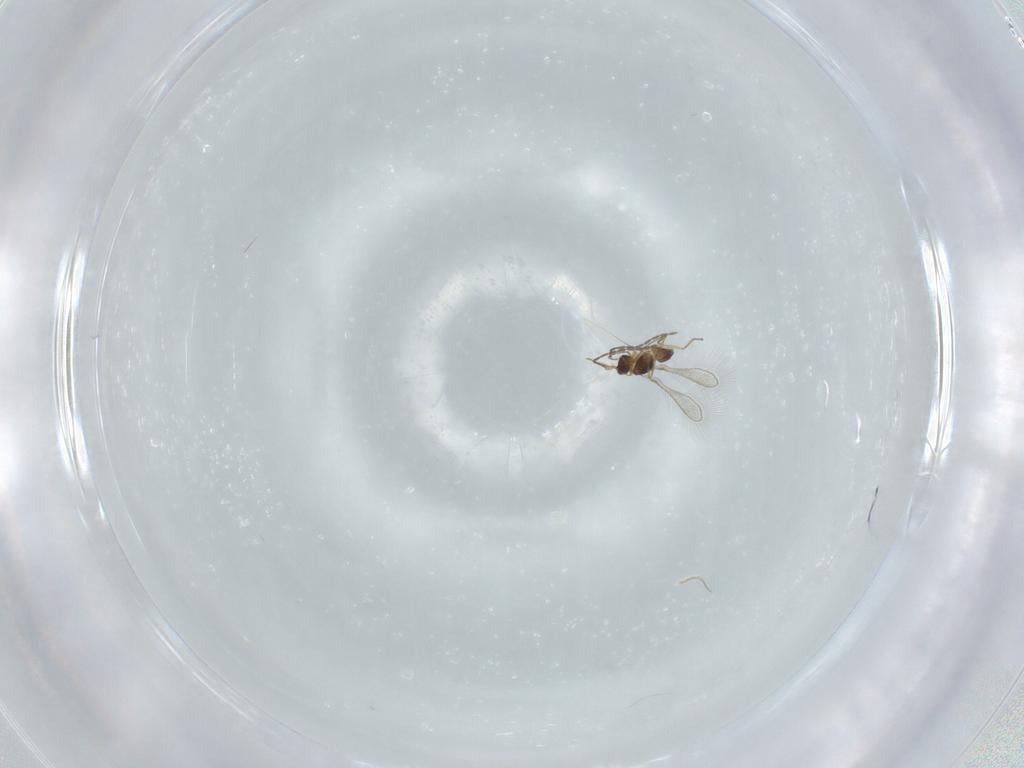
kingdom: Animalia
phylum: Arthropoda
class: Insecta
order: Hymenoptera
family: Mymaridae
